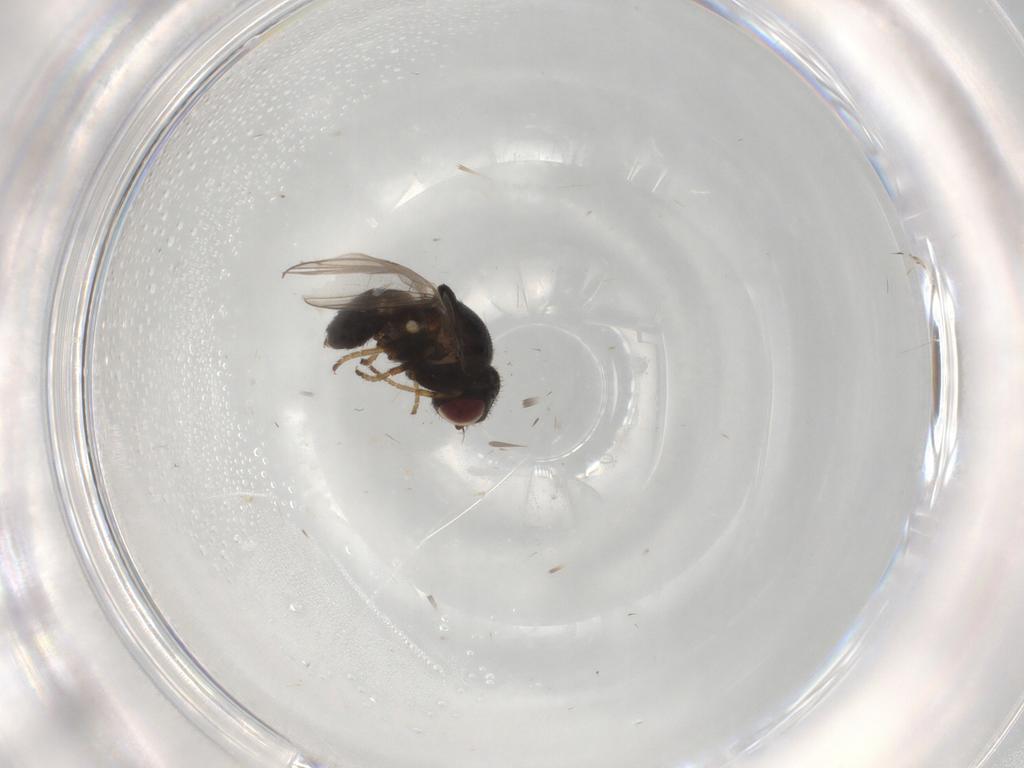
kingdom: Animalia
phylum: Arthropoda
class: Insecta
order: Diptera
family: Chloropidae
